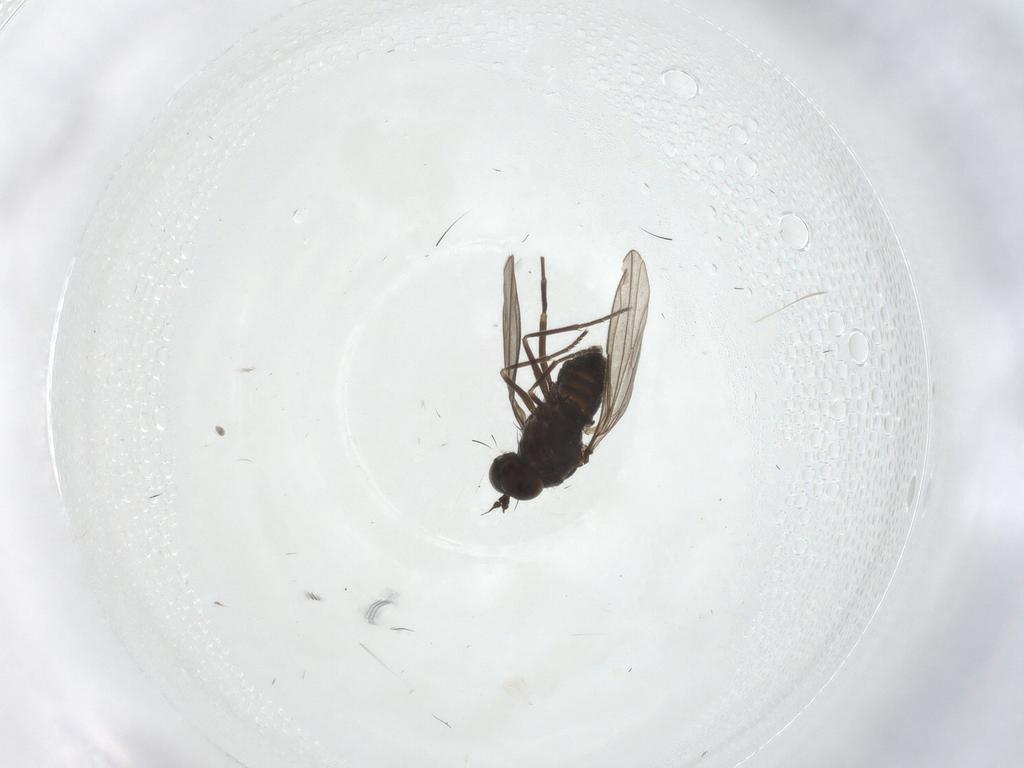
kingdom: Animalia
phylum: Arthropoda
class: Insecta
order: Diptera
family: Dolichopodidae
